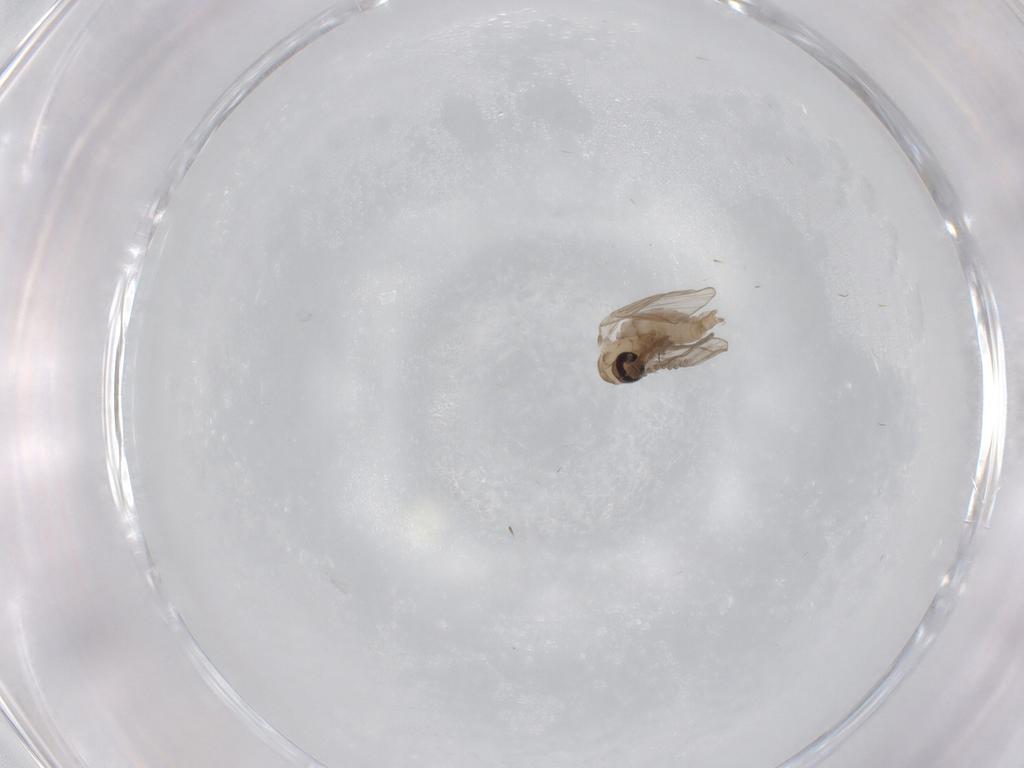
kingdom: Animalia
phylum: Arthropoda
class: Insecta
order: Diptera
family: Psychodidae
